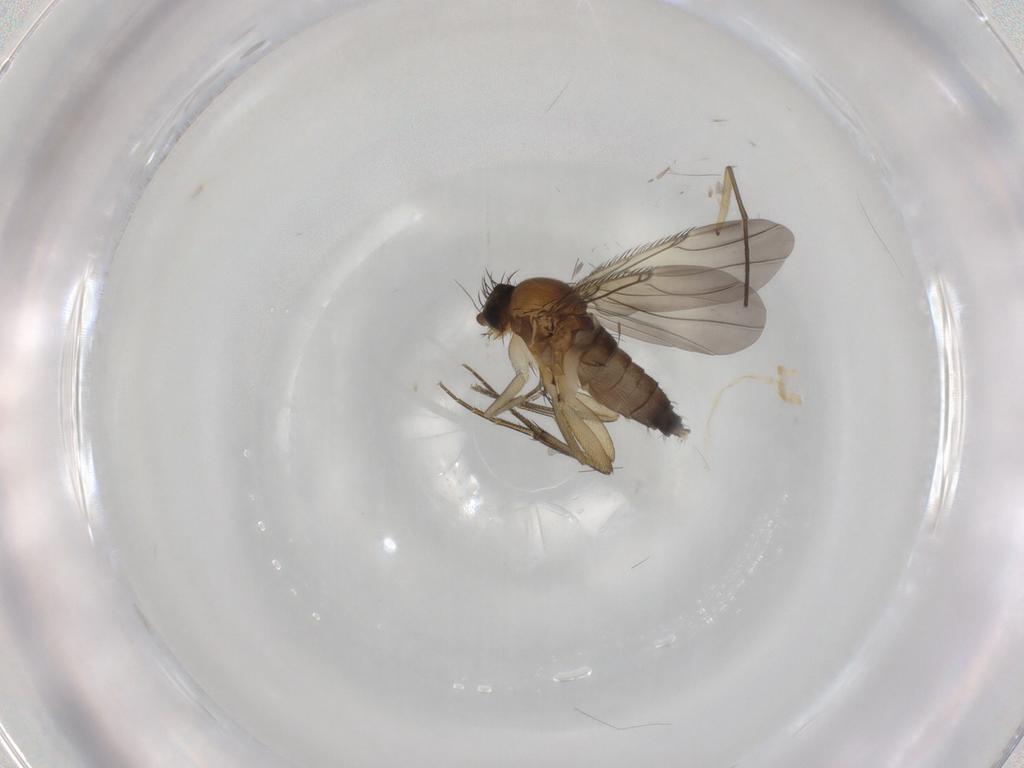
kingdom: Animalia
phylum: Arthropoda
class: Insecta
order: Diptera
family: Phoridae
